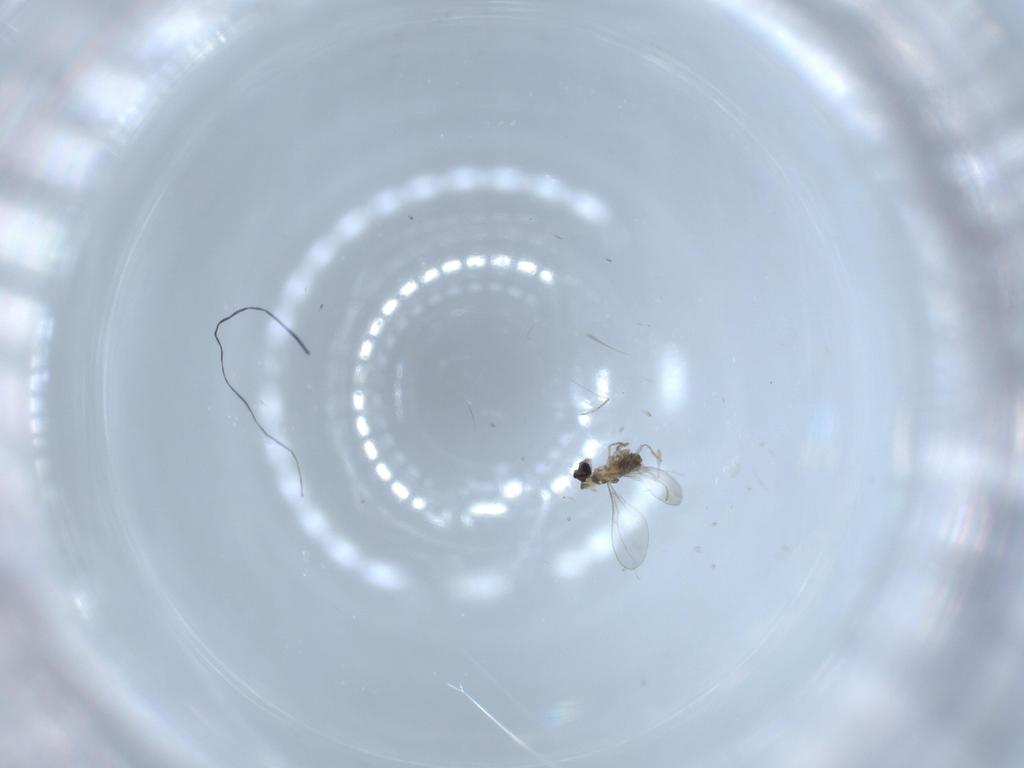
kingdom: Animalia
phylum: Arthropoda
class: Insecta
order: Diptera
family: Cecidomyiidae
